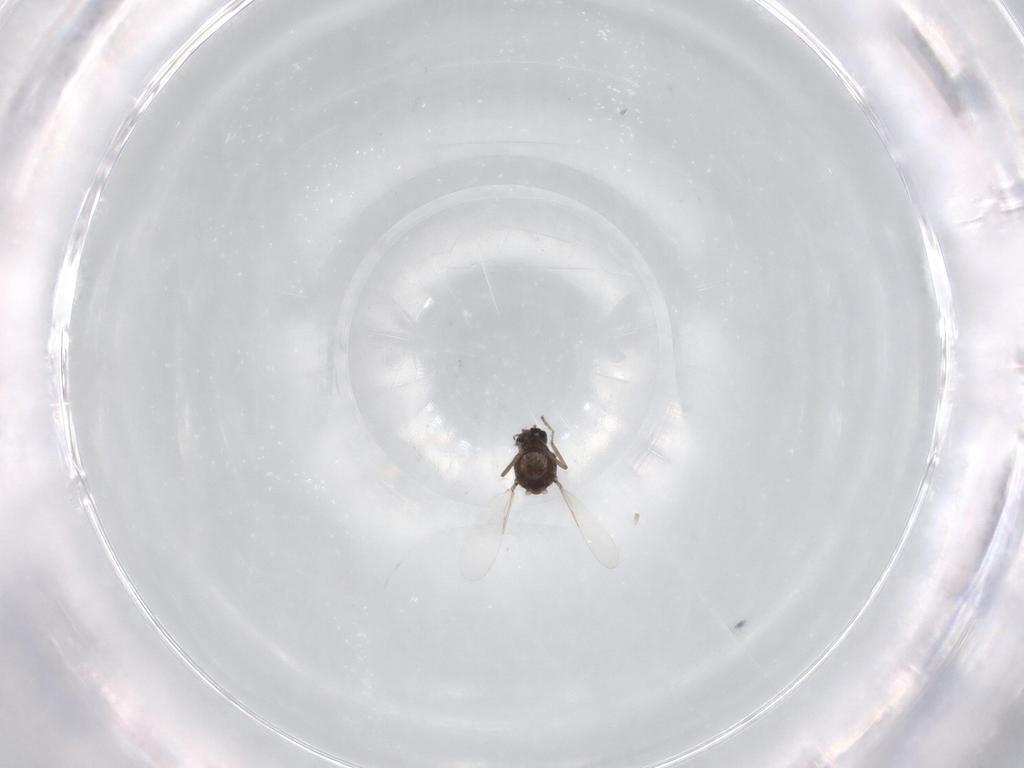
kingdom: Animalia
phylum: Arthropoda
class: Insecta
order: Diptera
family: Ceratopogonidae
